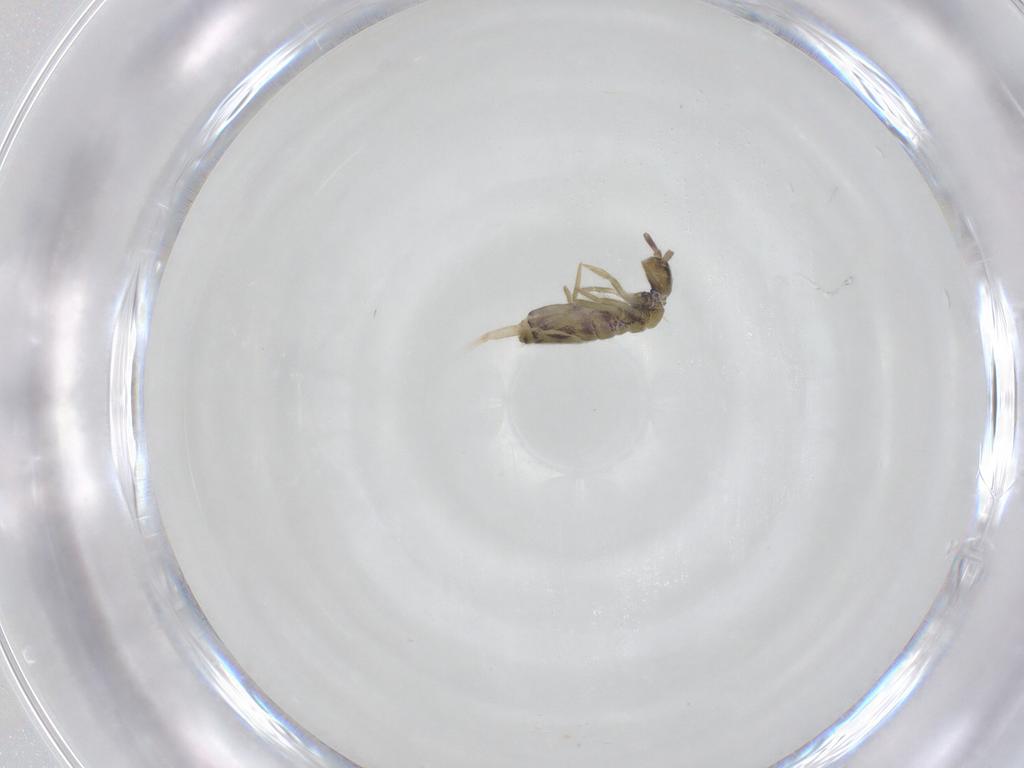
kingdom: Animalia
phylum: Arthropoda
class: Collembola
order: Entomobryomorpha
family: Entomobryidae
